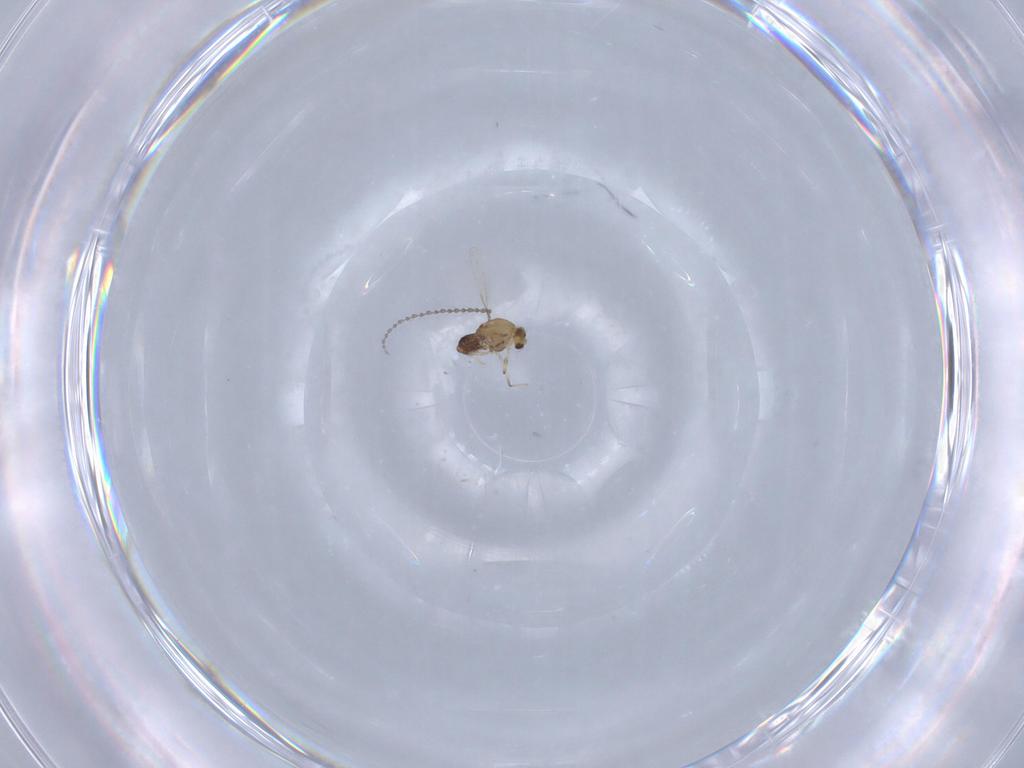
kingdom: Animalia
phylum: Arthropoda
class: Insecta
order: Diptera
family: Chironomidae
